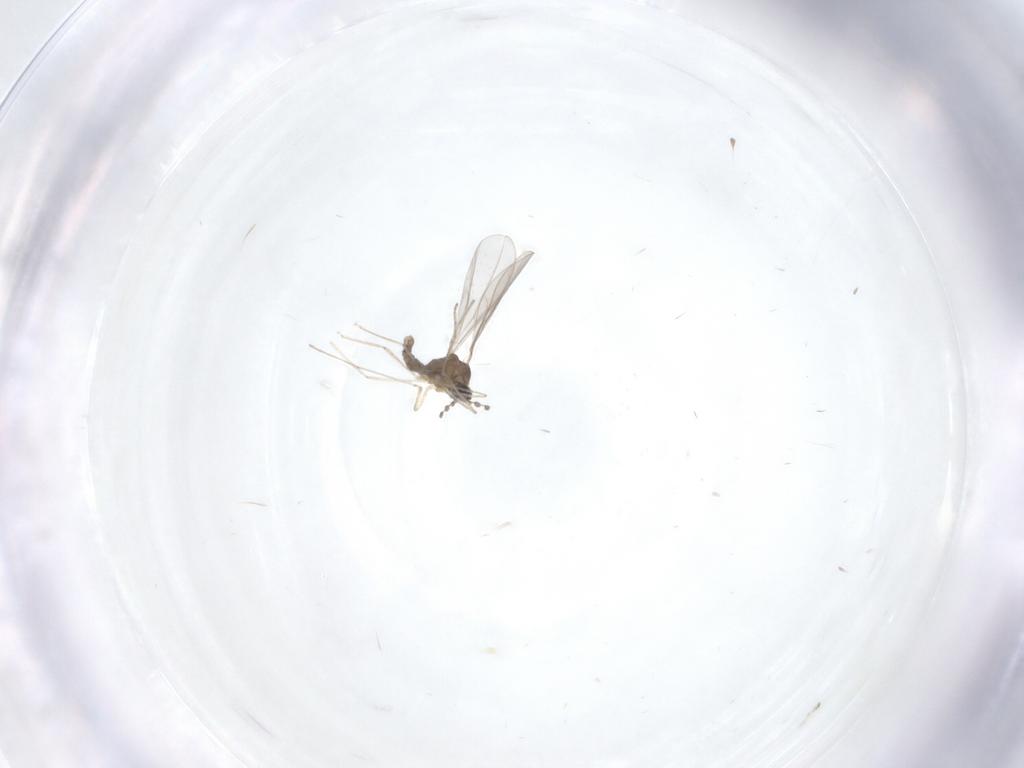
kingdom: Animalia
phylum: Arthropoda
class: Insecta
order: Diptera
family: Cecidomyiidae
